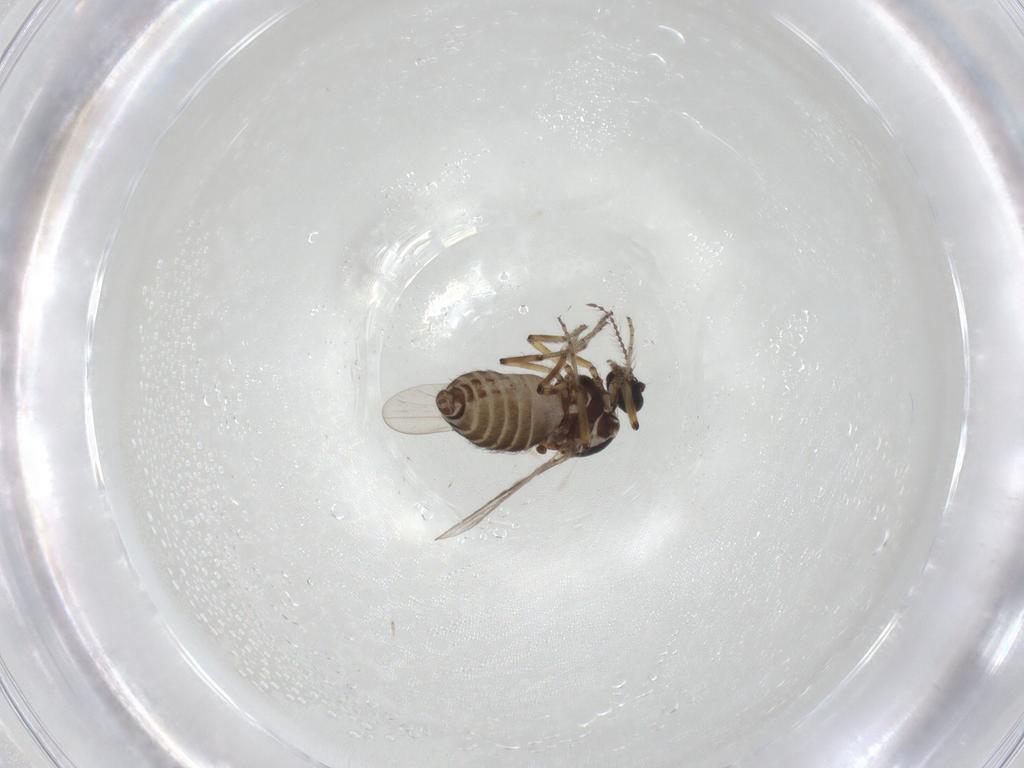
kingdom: Animalia
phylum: Arthropoda
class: Insecta
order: Diptera
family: Ceratopogonidae
